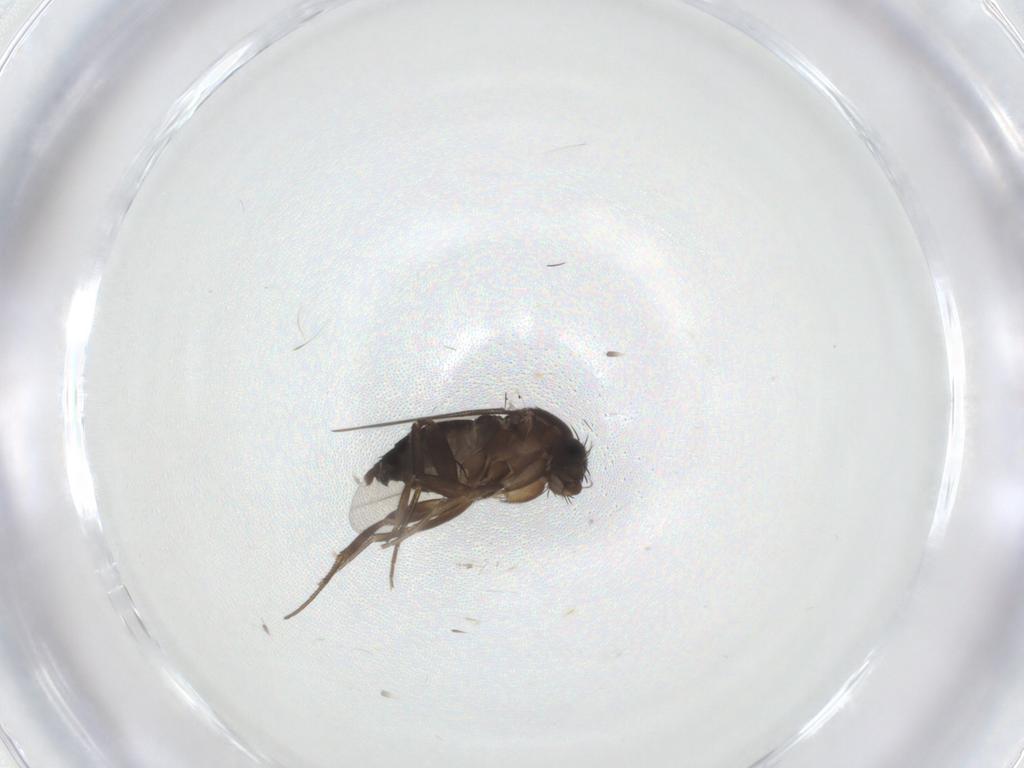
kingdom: Animalia
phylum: Arthropoda
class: Insecta
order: Diptera
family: Phoridae
